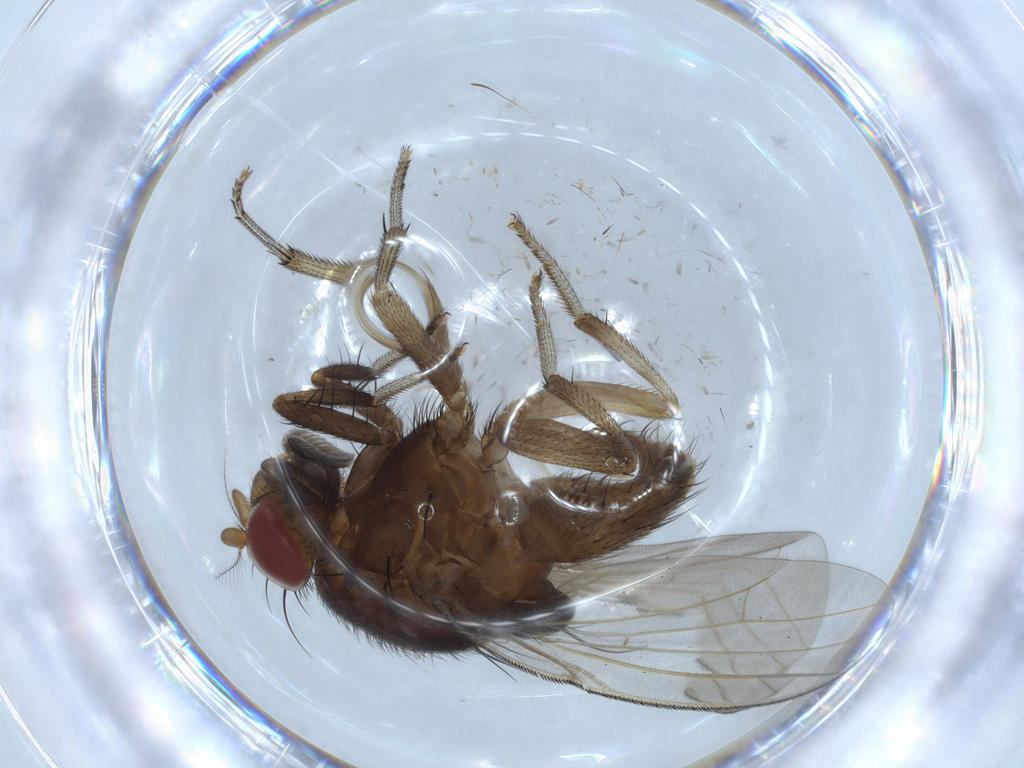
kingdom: Animalia
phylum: Arthropoda
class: Insecta
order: Diptera
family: Lauxaniidae
